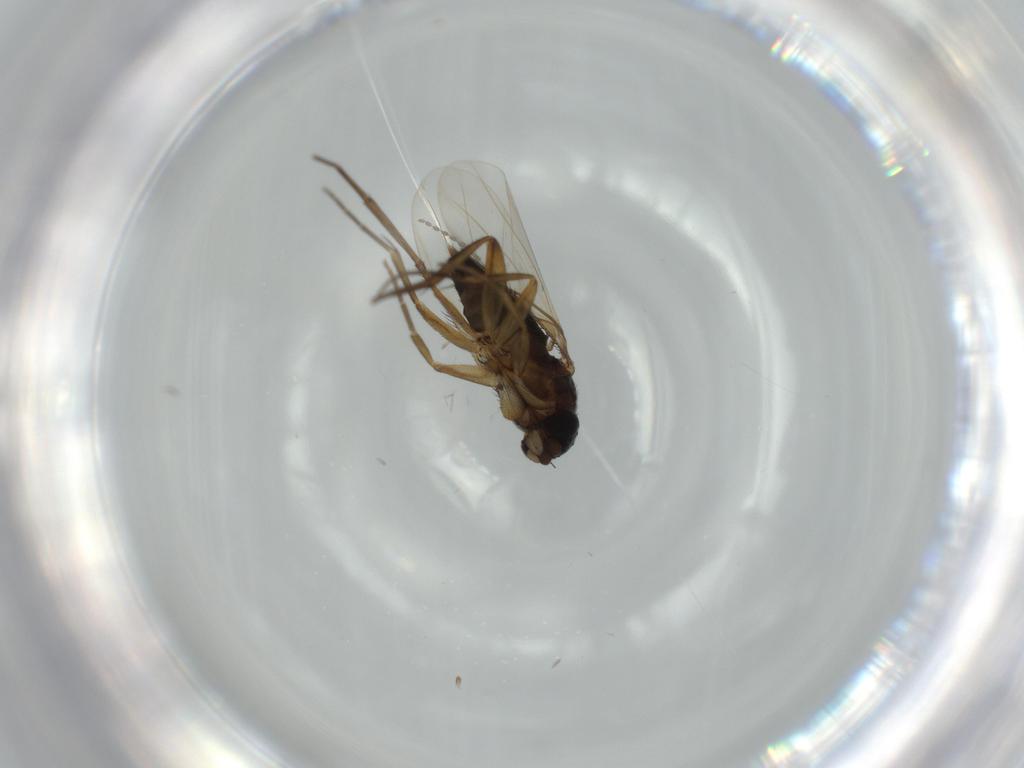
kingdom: Animalia
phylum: Arthropoda
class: Insecta
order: Diptera
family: Phoridae
